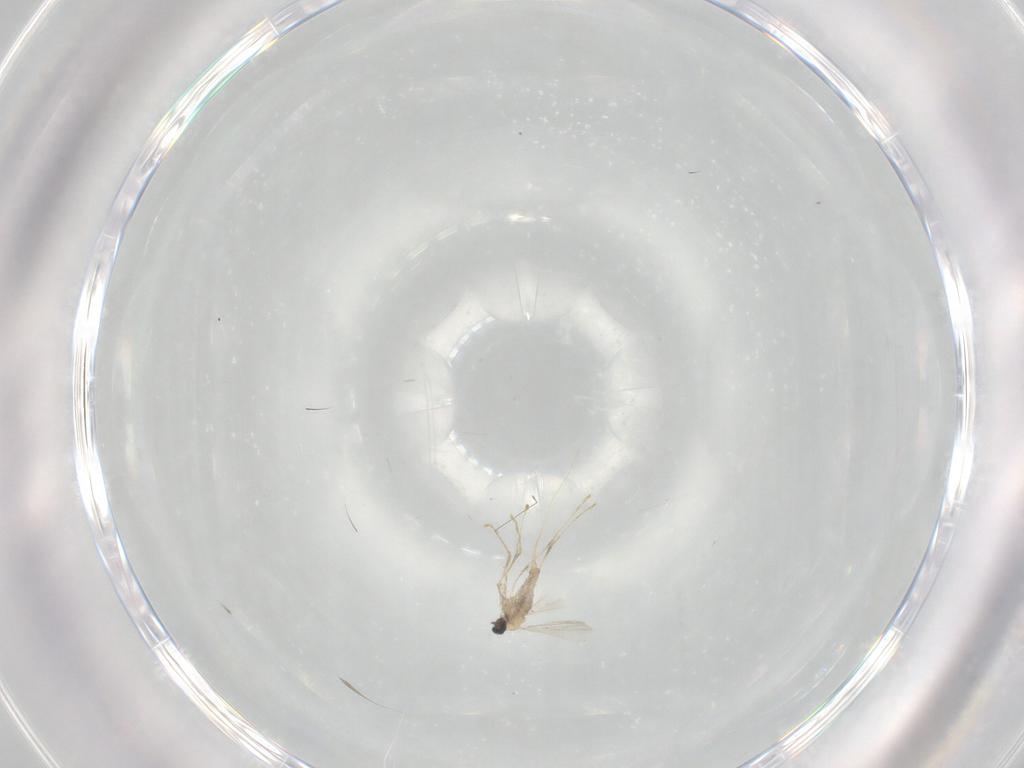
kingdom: Animalia
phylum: Arthropoda
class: Insecta
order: Diptera
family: Cecidomyiidae
